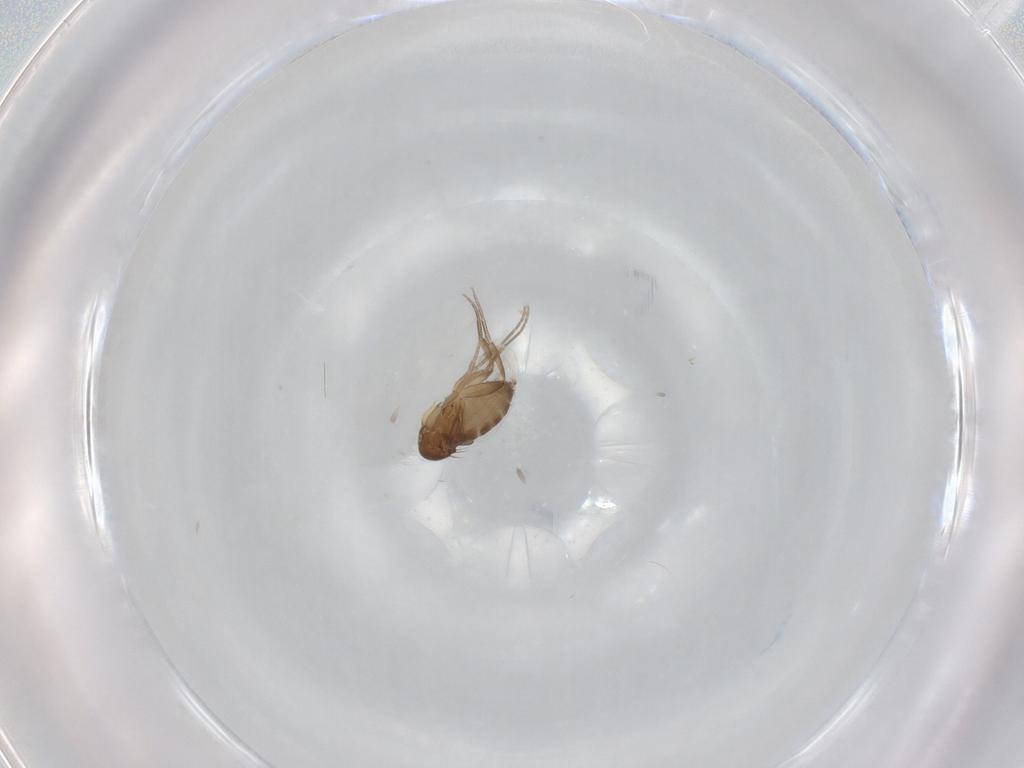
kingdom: Animalia
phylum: Arthropoda
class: Insecta
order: Diptera
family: Phoridae
